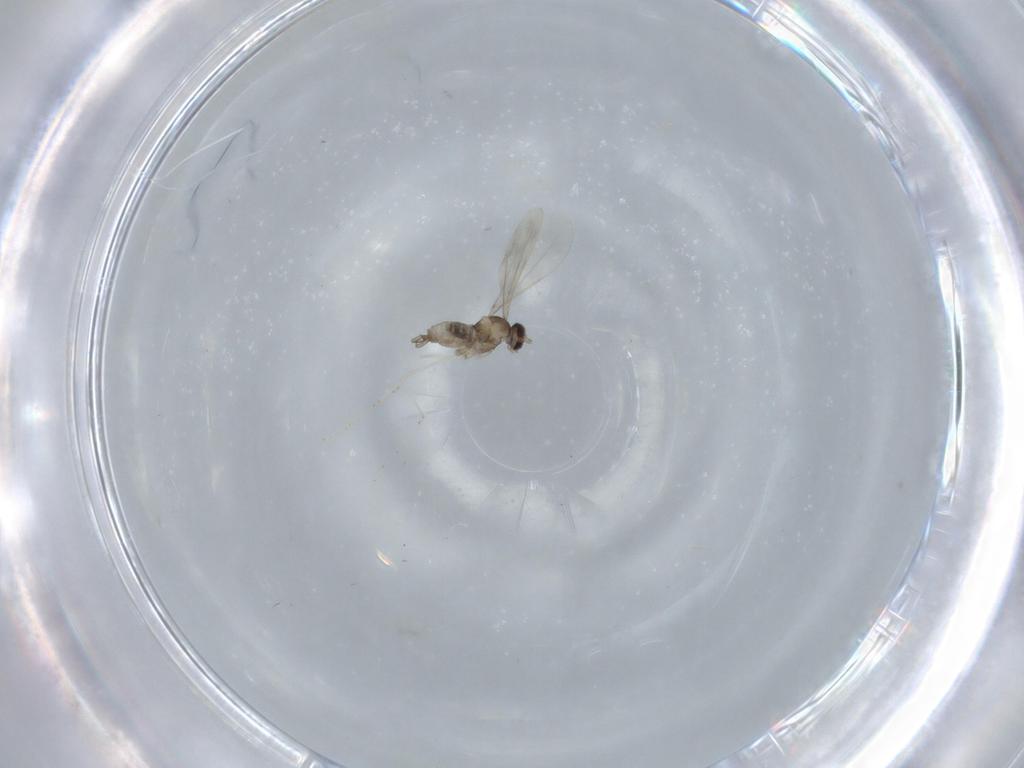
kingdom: Animalia
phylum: Arthropoda
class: Insecta
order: Diptera
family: Cecidomyiidae
